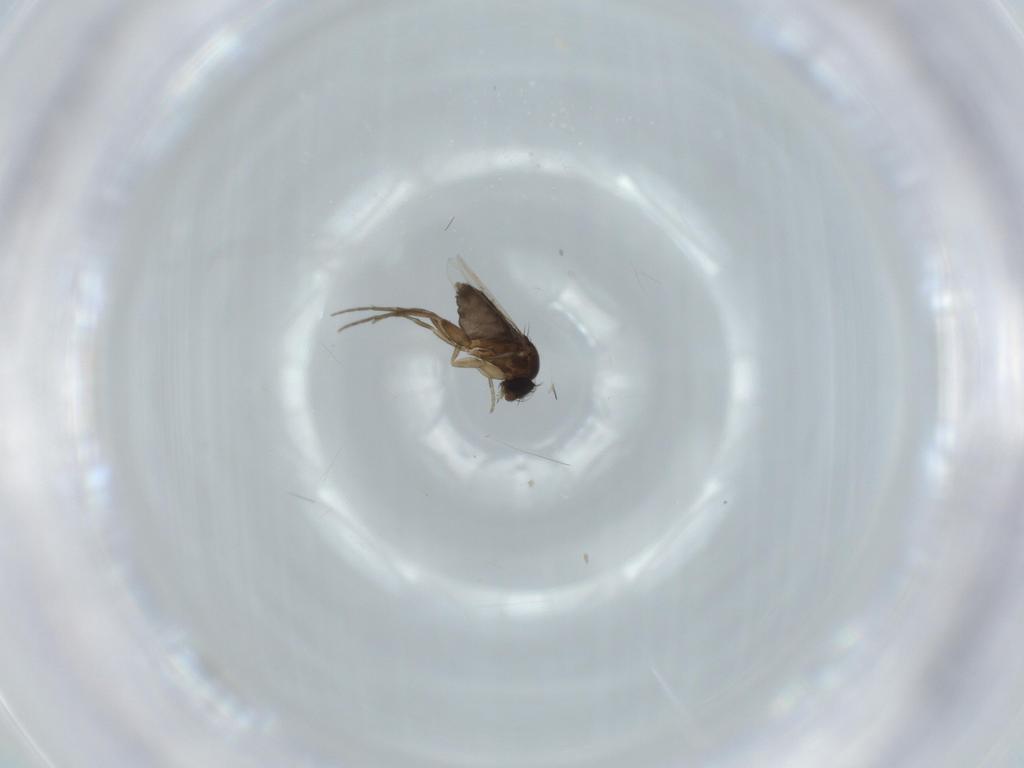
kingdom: Animalia
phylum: Arthropoda
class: Insecta
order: Diptera
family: Phoridae
